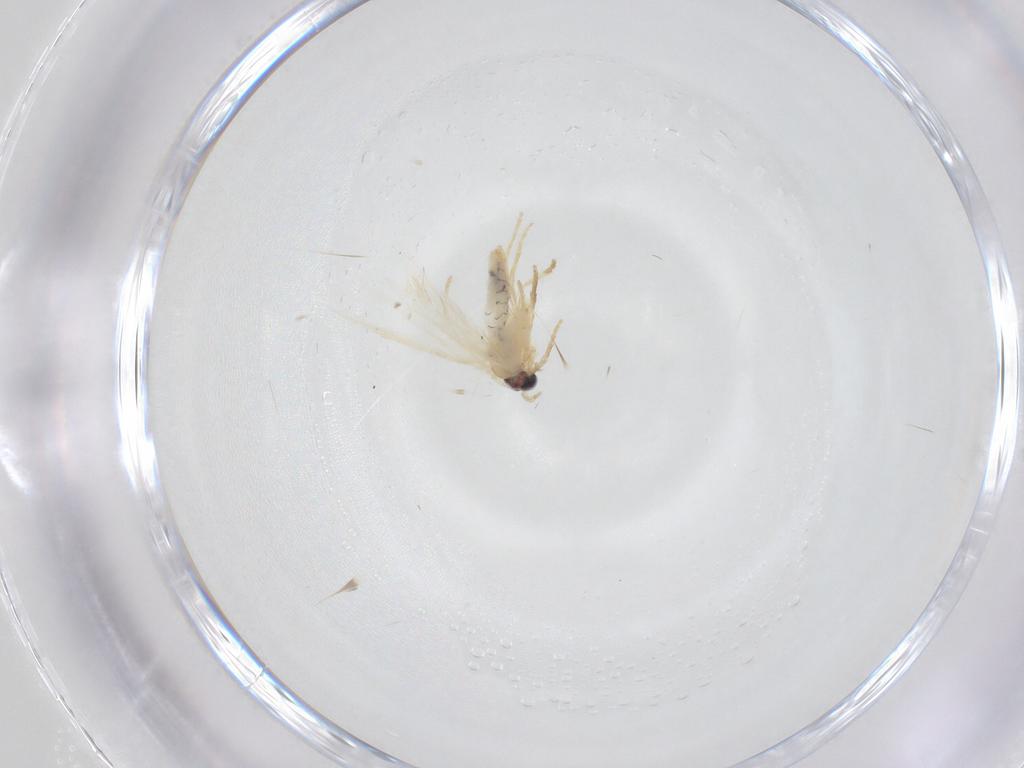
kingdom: Animalia
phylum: Arthropoda
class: Insecta
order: Lepidoptera
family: Nepticulidae
